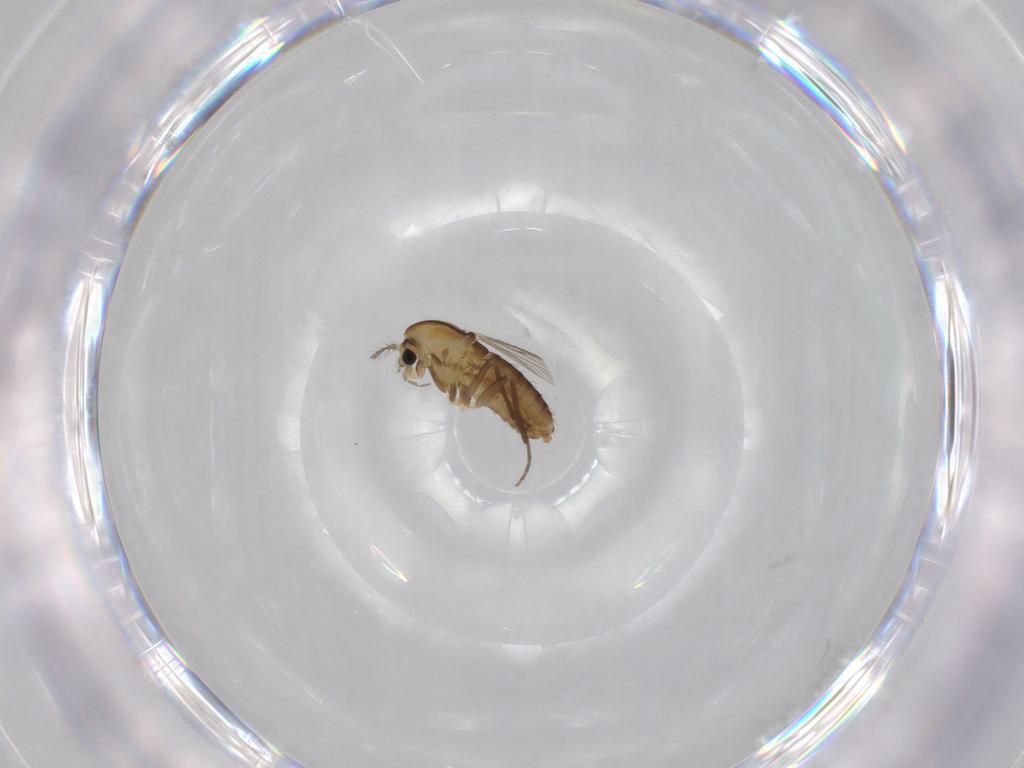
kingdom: Animalia
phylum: Arthropoda
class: Insecta
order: Diptera
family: Chironomidae
